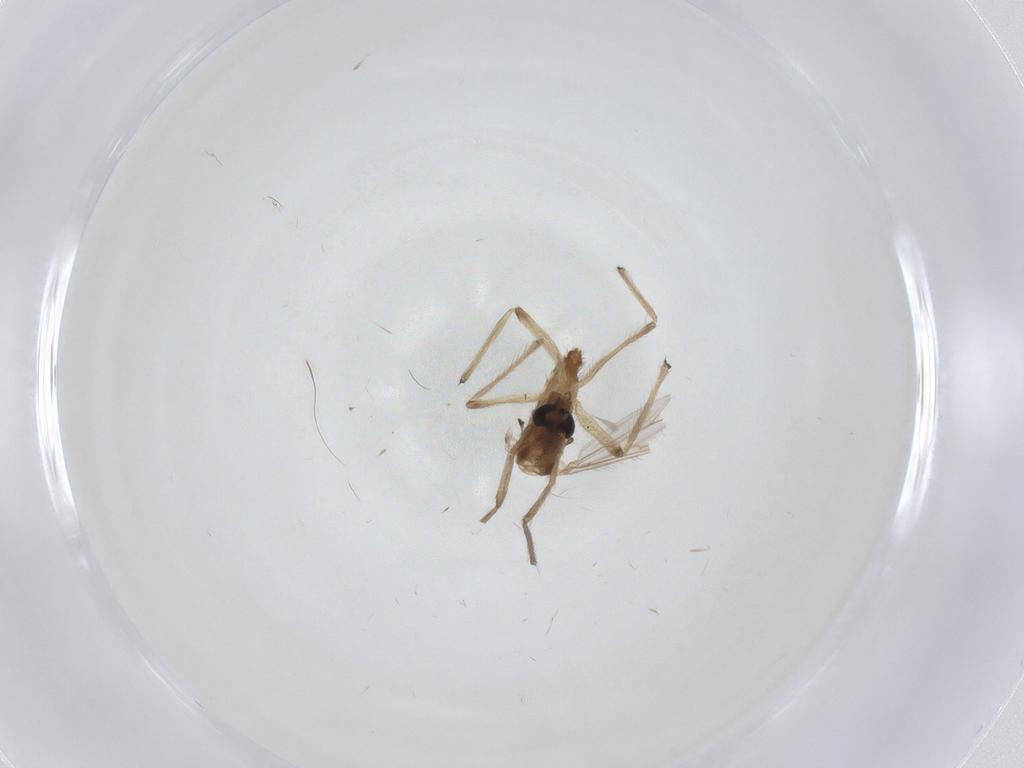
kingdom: Animalia
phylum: Arthropoda
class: Insecta
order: Diptera
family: Chironomidae
